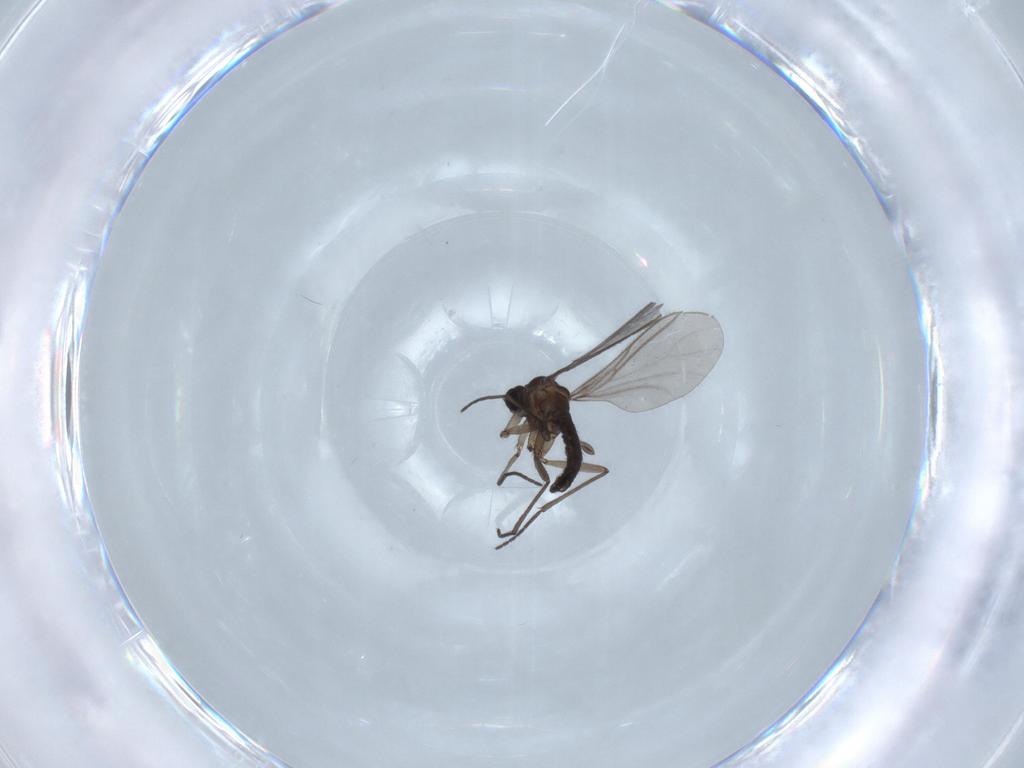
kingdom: Animalia
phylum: Arthropoda
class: Insecta
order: Diptera
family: Limoniidae
